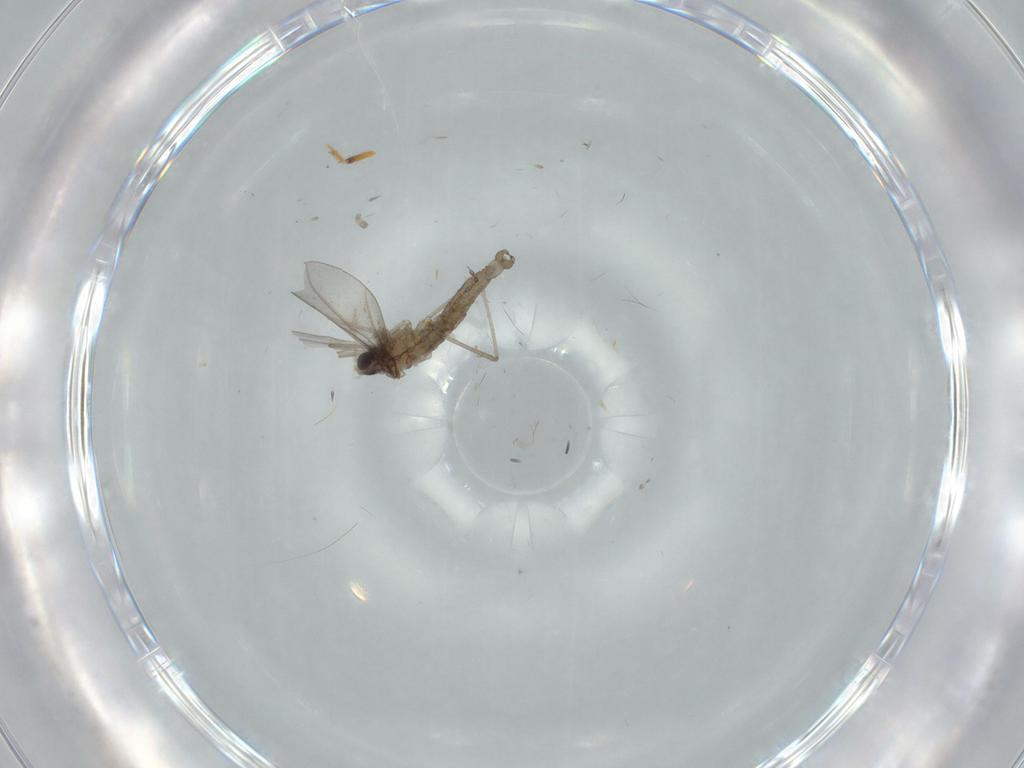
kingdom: Animalia
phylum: Arthropoda
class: Insecta
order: Diptera
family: Cecidomyiidae
